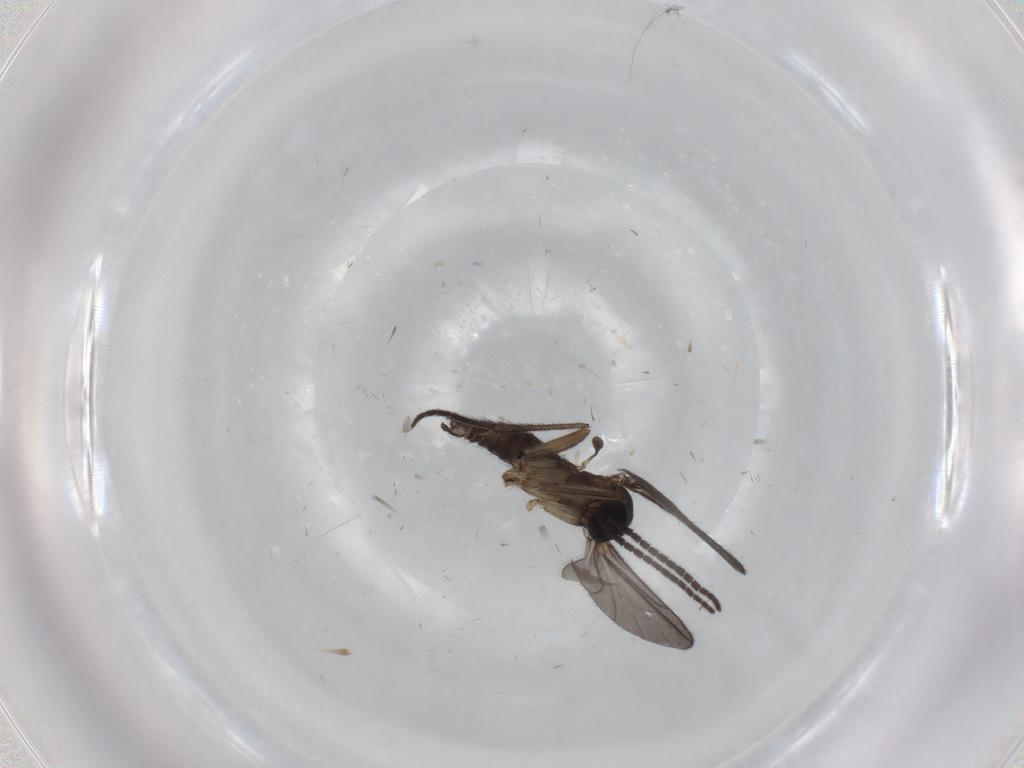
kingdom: Animalia
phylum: Arthropoda
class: Insecta
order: Diptera
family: Sciaridae
